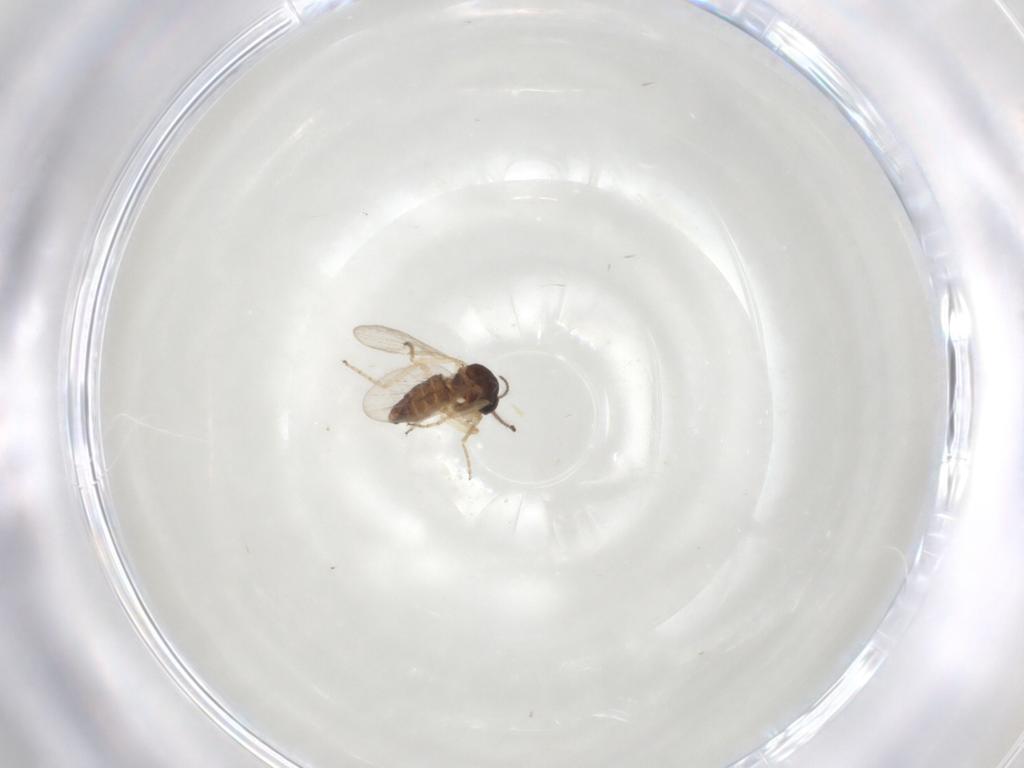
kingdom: Animalia
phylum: Arthropoda
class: Insecta
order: Diptera
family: Ceratopogonidae
